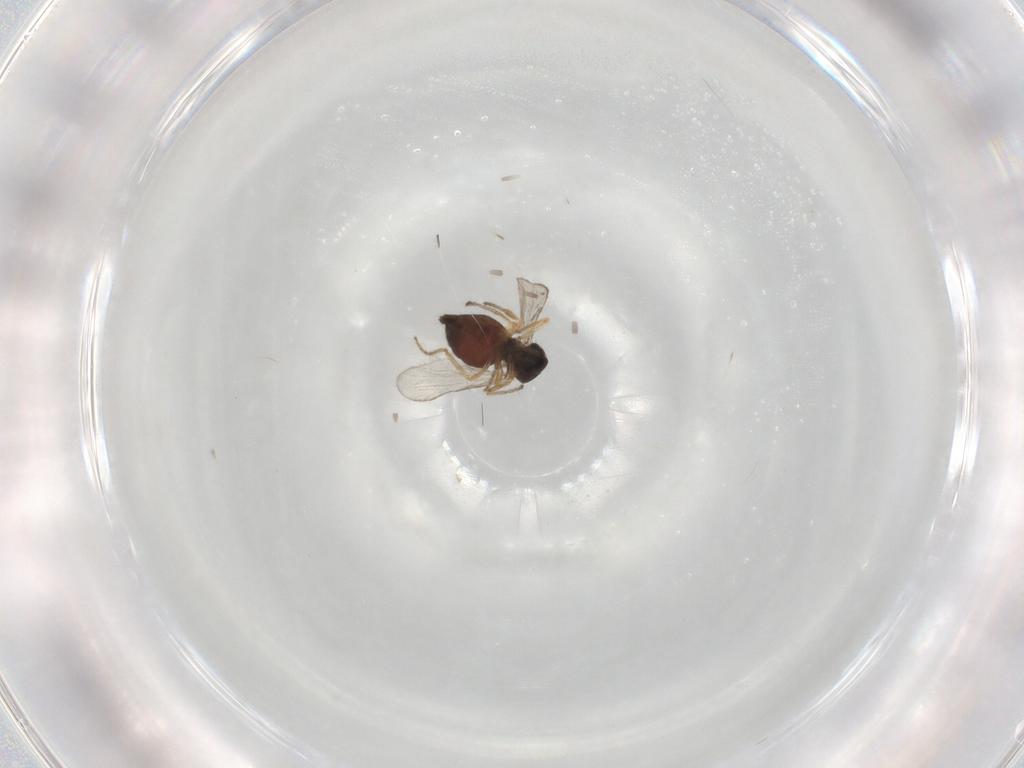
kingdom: Animalia
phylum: Arthropoda
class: Insecta
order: Diptera
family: Ceratopogonidae
